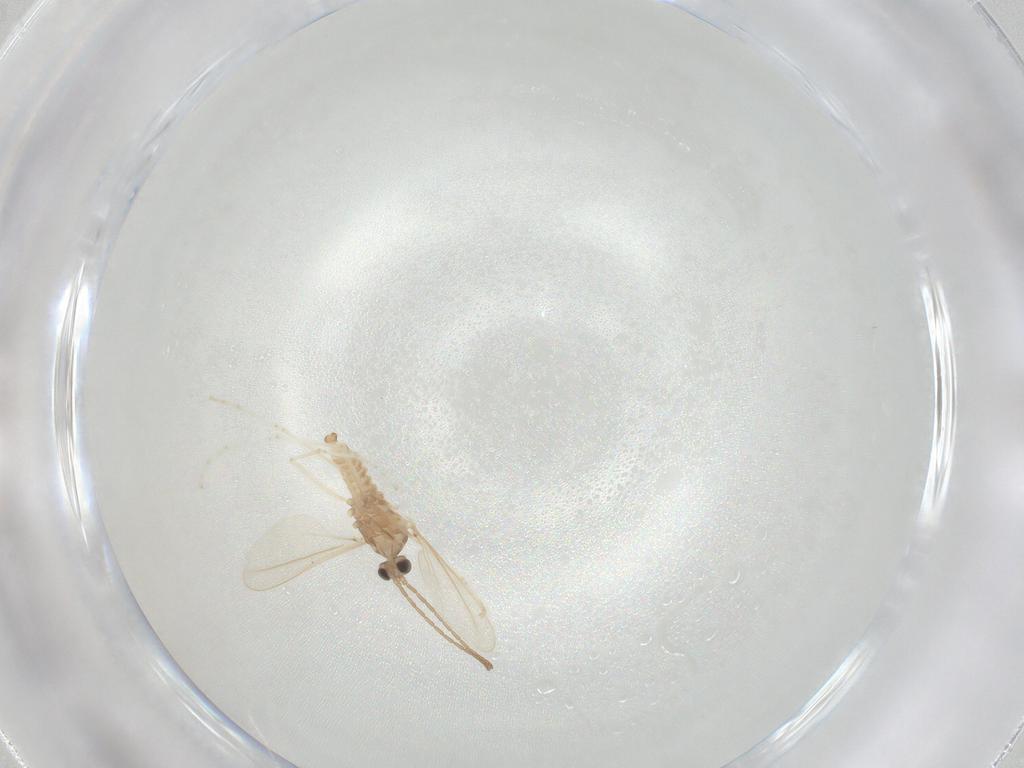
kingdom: Animalia
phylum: Arthropoda
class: Insecta
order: Diptera
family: Cecidomyiidae
